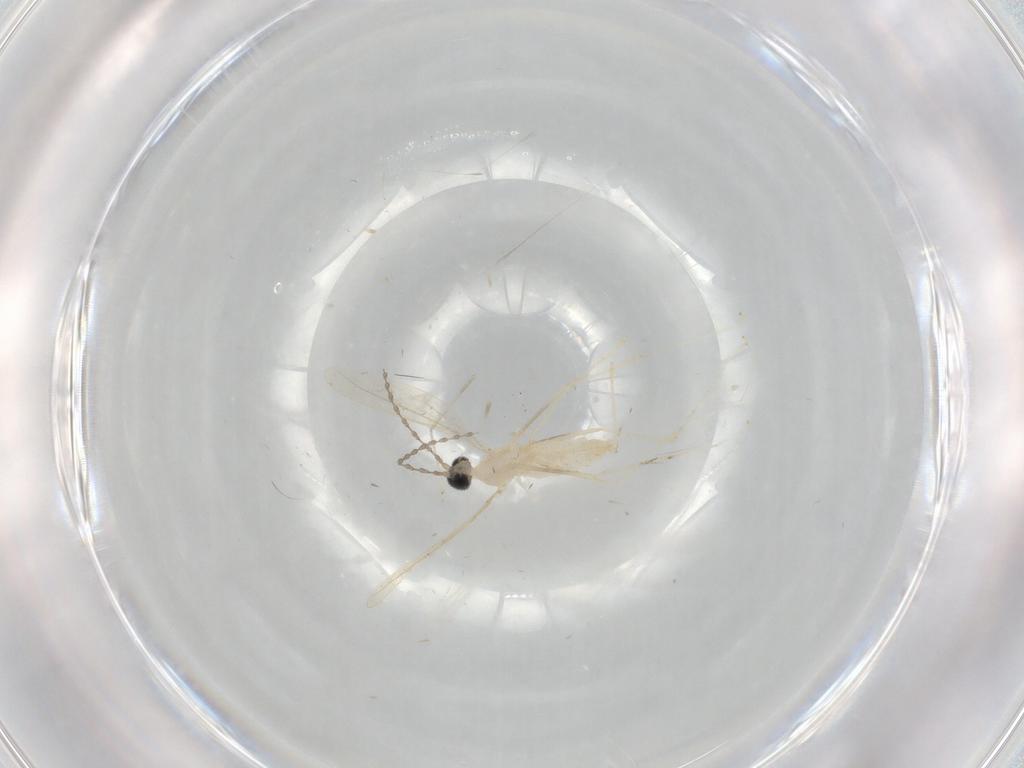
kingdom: Animalia
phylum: Arthropoda
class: Insecta
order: Diptera
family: Cecidomyiidae
